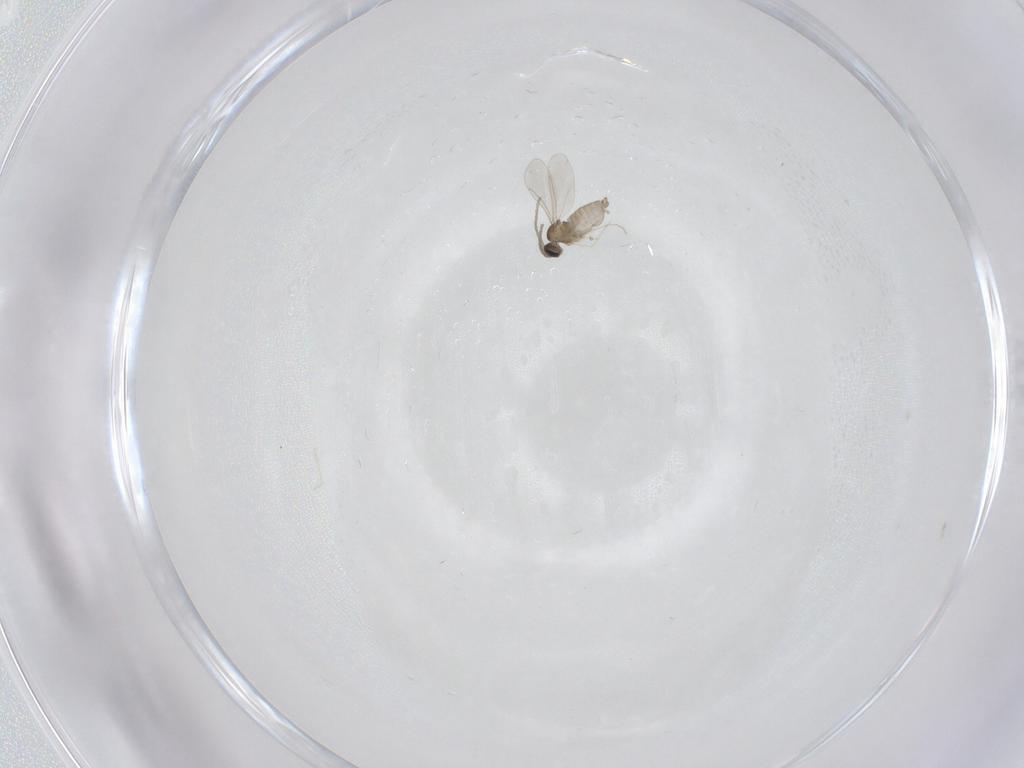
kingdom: Animalia
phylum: Arthropoda
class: Insecta
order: Diptera
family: Cecidomyiidae
